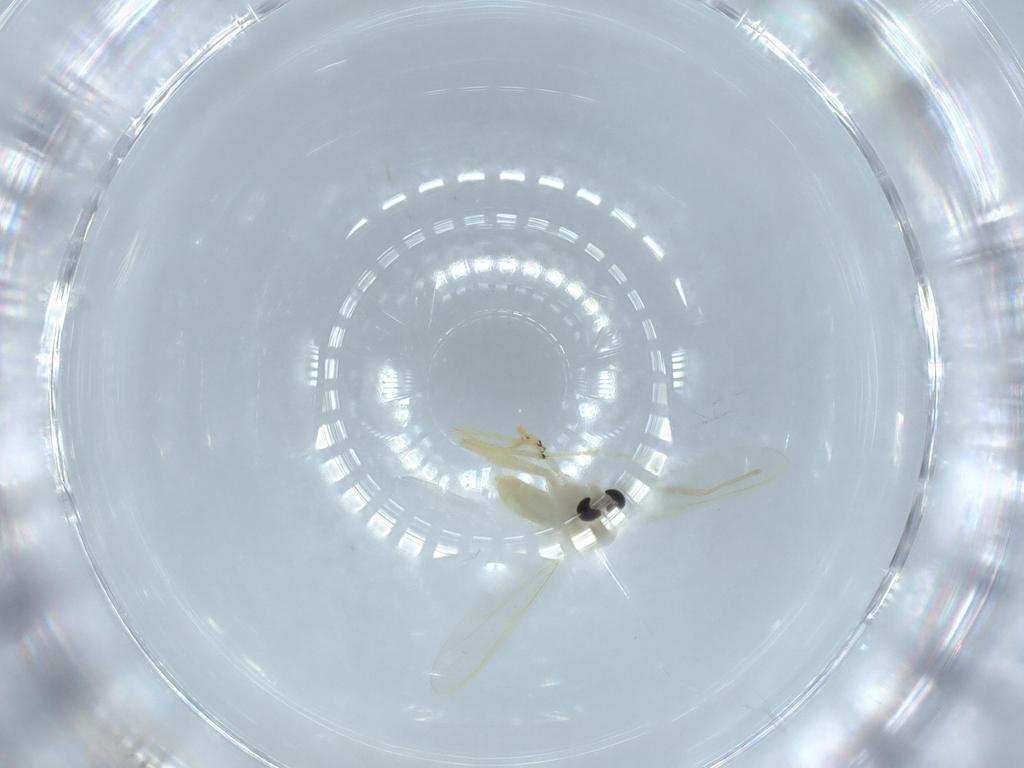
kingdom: Animalia
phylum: Arthropoda
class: Insecta
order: Diptera
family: Chironomidae
